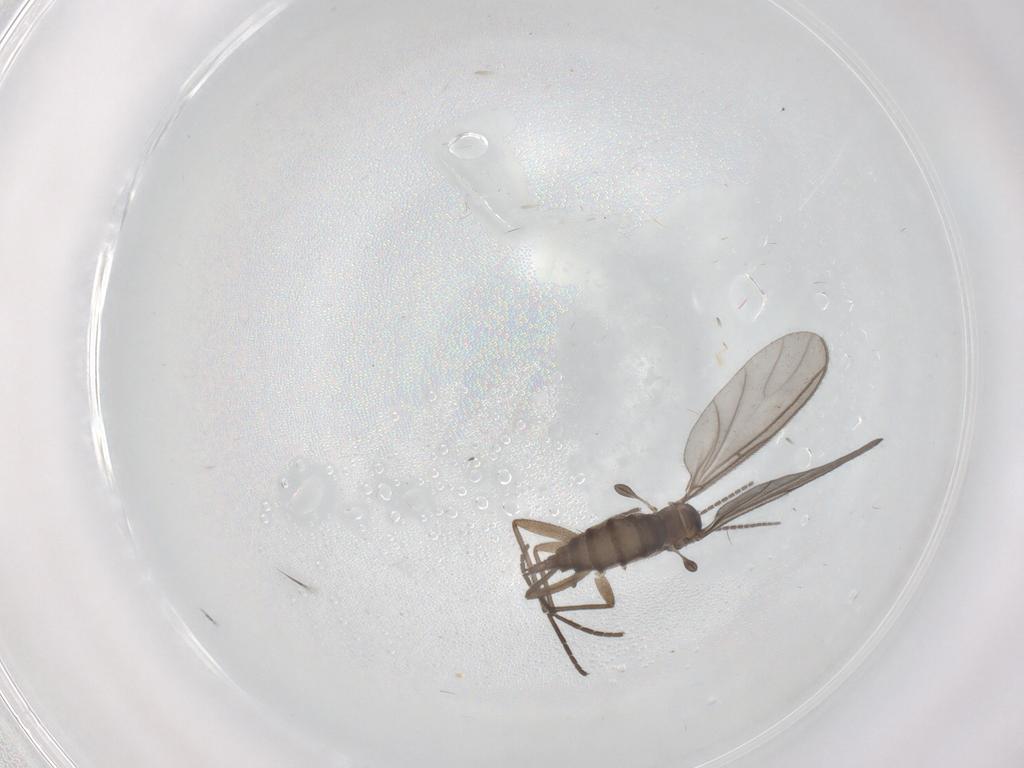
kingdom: Animalia
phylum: Arthropoda
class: Insecta
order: Diptera
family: Sciaridae
